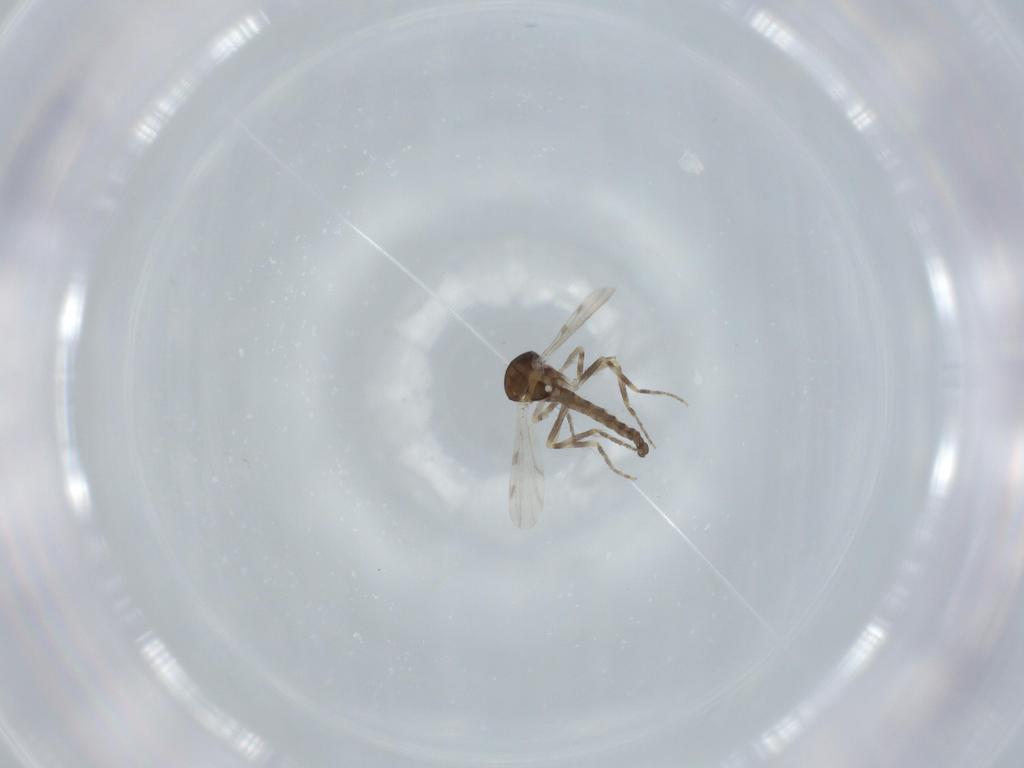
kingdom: Animalia
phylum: Arthropoda
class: Insecta
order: Diptera
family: Ceratopogonidae
